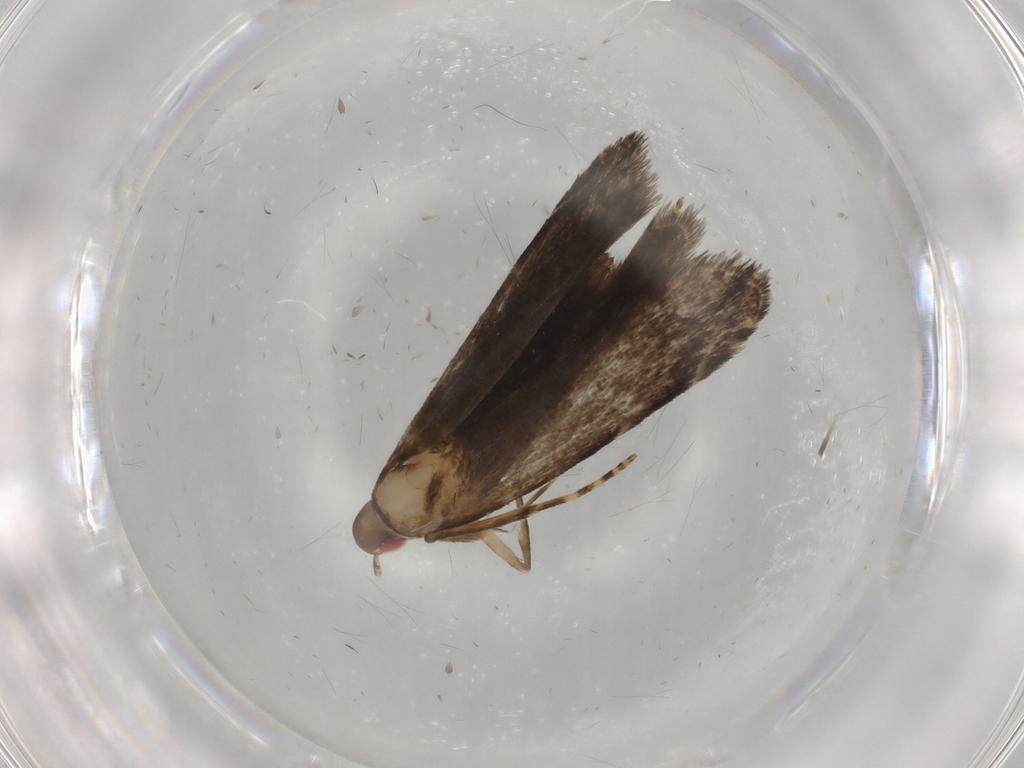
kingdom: Animalia
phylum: Arthropoda
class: Insecta
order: Lepidoptera
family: Gelechiidae
